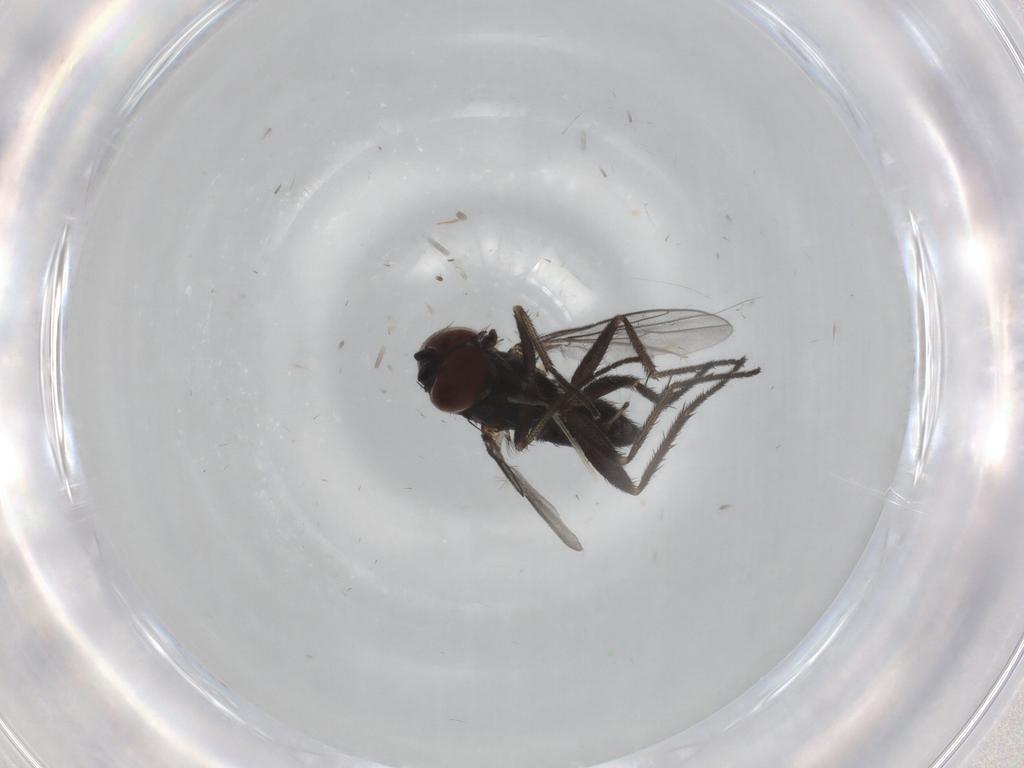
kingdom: Animalia
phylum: Arthropoda
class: Insecta
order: Diptera
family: Dolichopodidae
